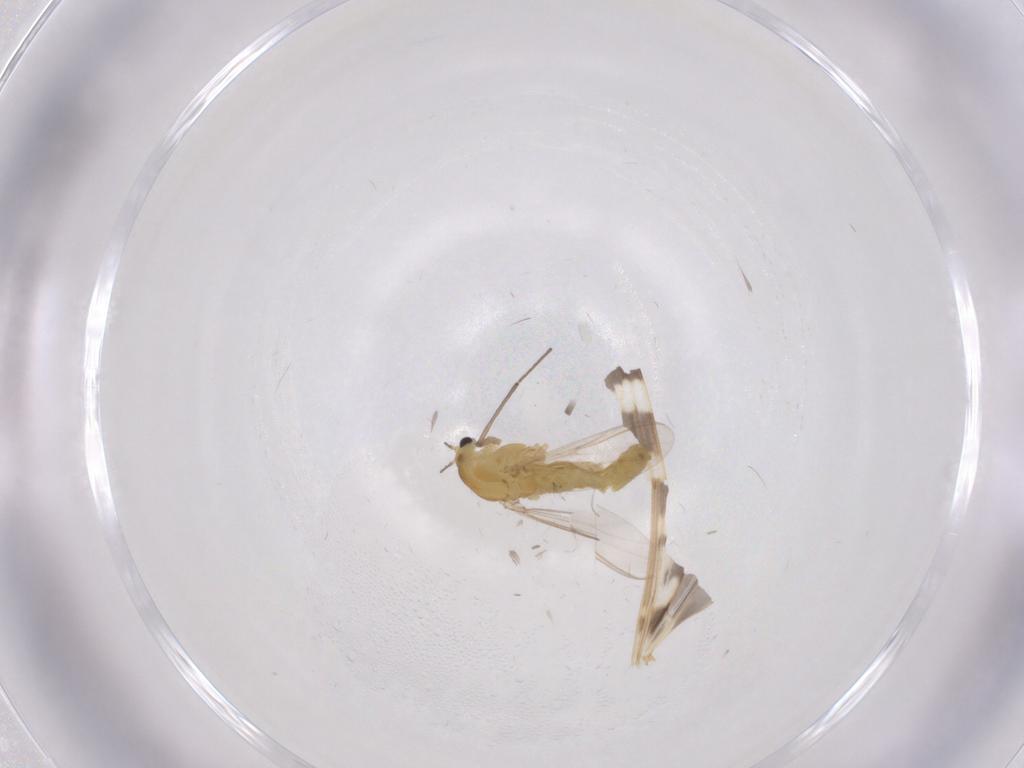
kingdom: Animalia
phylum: Arthropoda
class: Insecta
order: Diptera
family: Chironomidae
